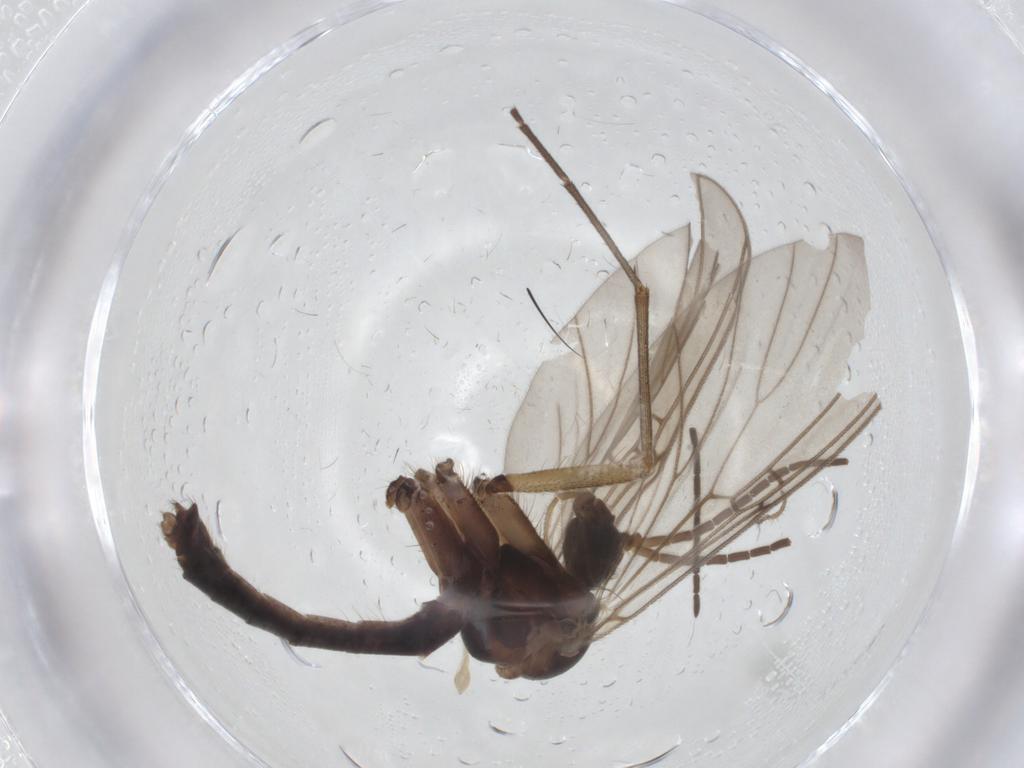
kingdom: Animalia
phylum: Arthropoda
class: Insecta
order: Diptera
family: Mycetophilidae
